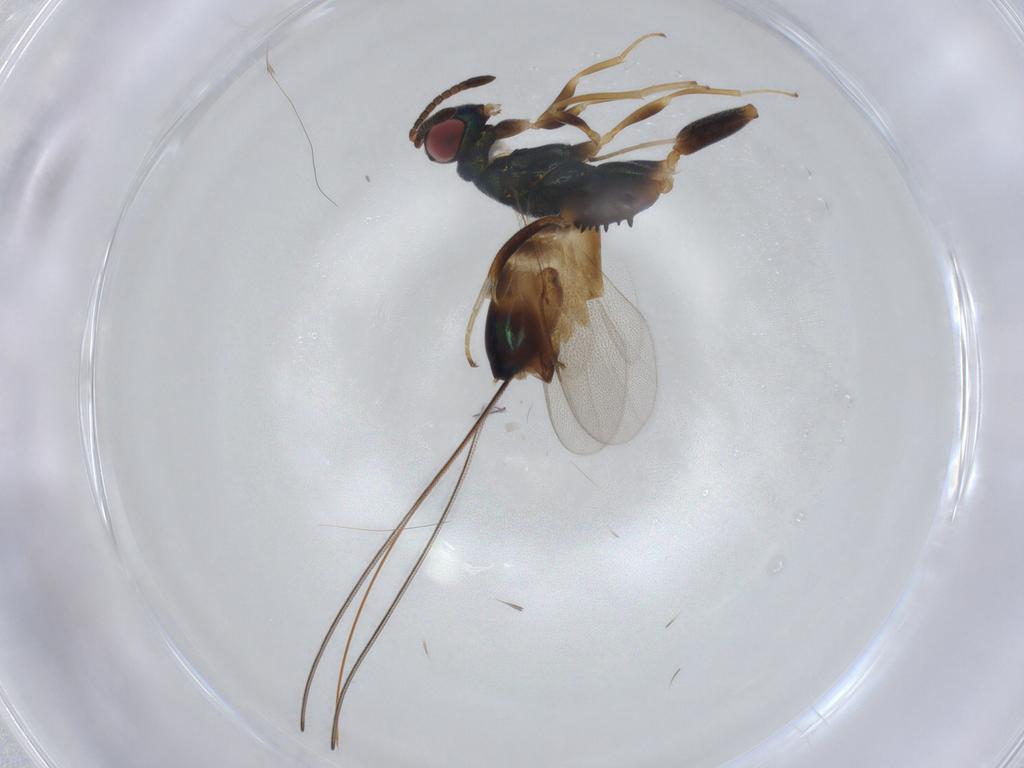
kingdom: Animalia
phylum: Arthropoda
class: Insecta
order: Hymenoptera
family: Torymidae
